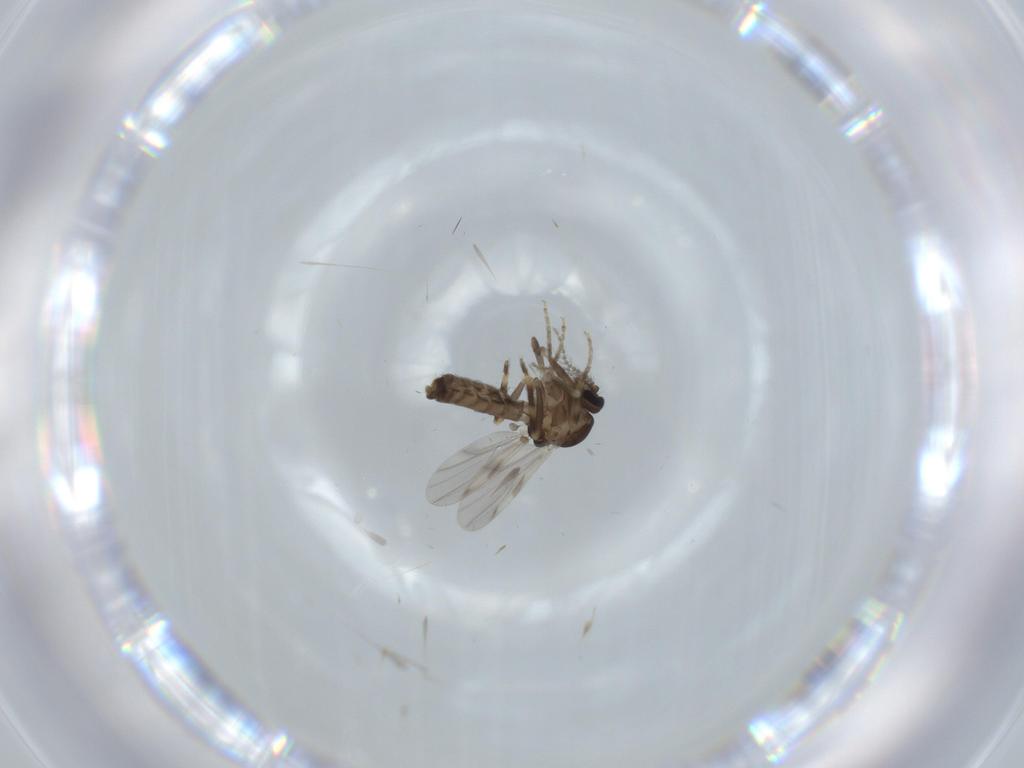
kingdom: Animalia
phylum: Arthropoda
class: Insecta
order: Diptera
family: Ceratopogonidae
